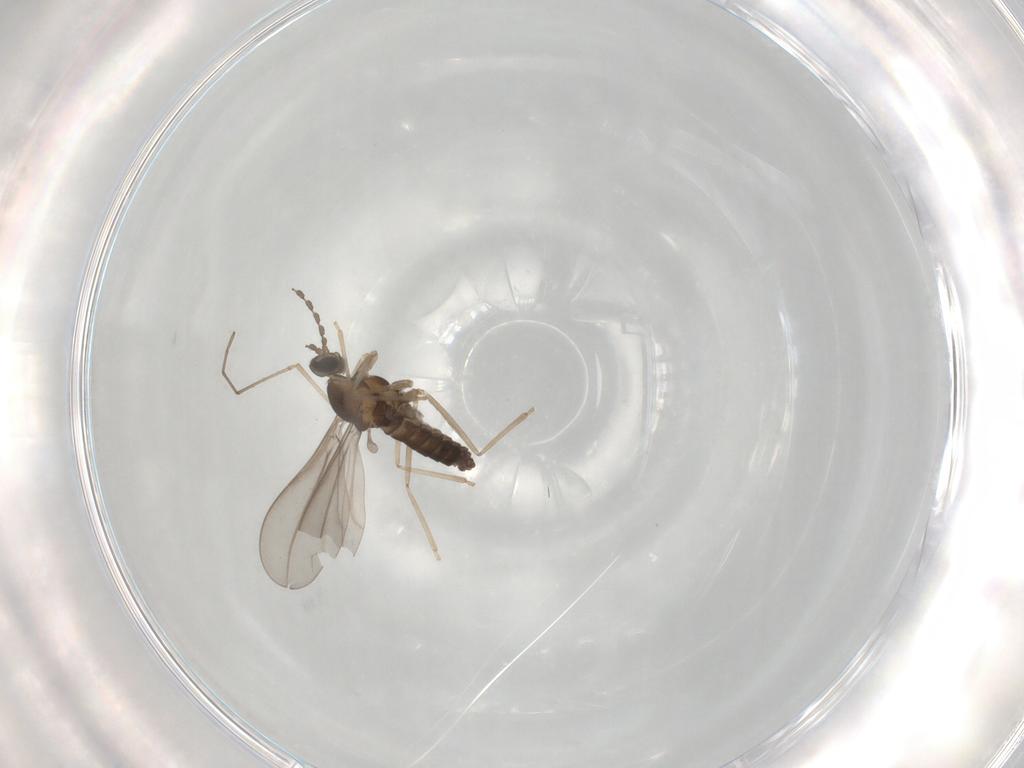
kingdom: Animalia
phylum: Arthropoda
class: Insecta
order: Diptera
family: Cecidomyiidae
